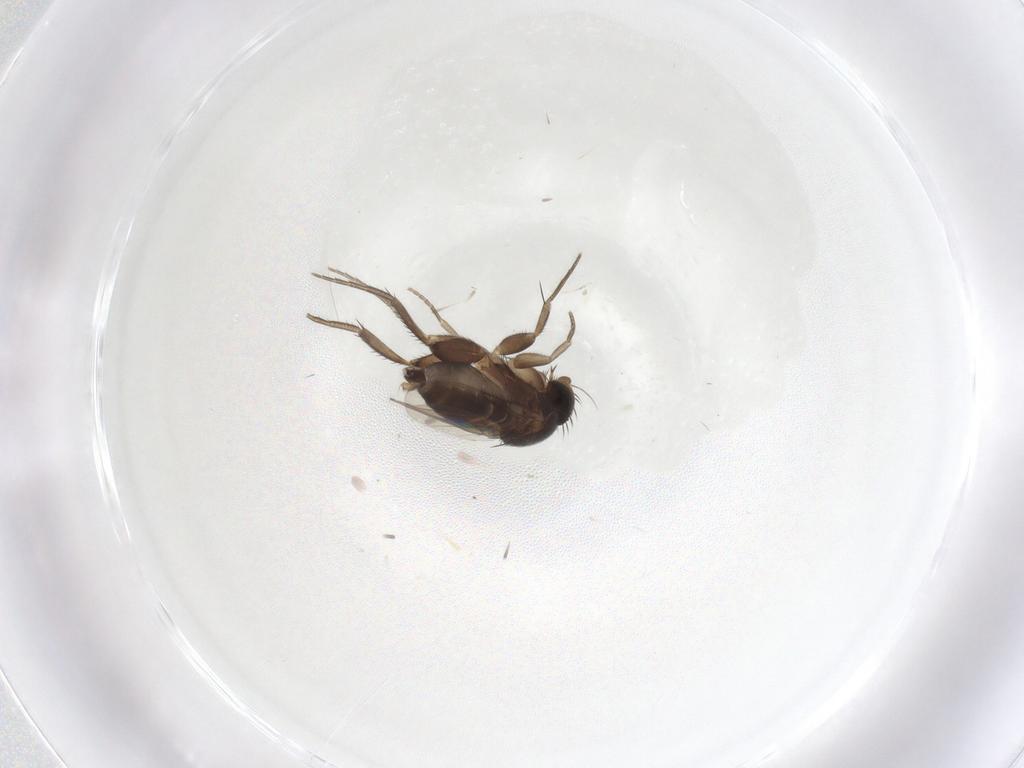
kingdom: Animalia
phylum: Arthropoda
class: Insecta
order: Diptera
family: Phoridae
